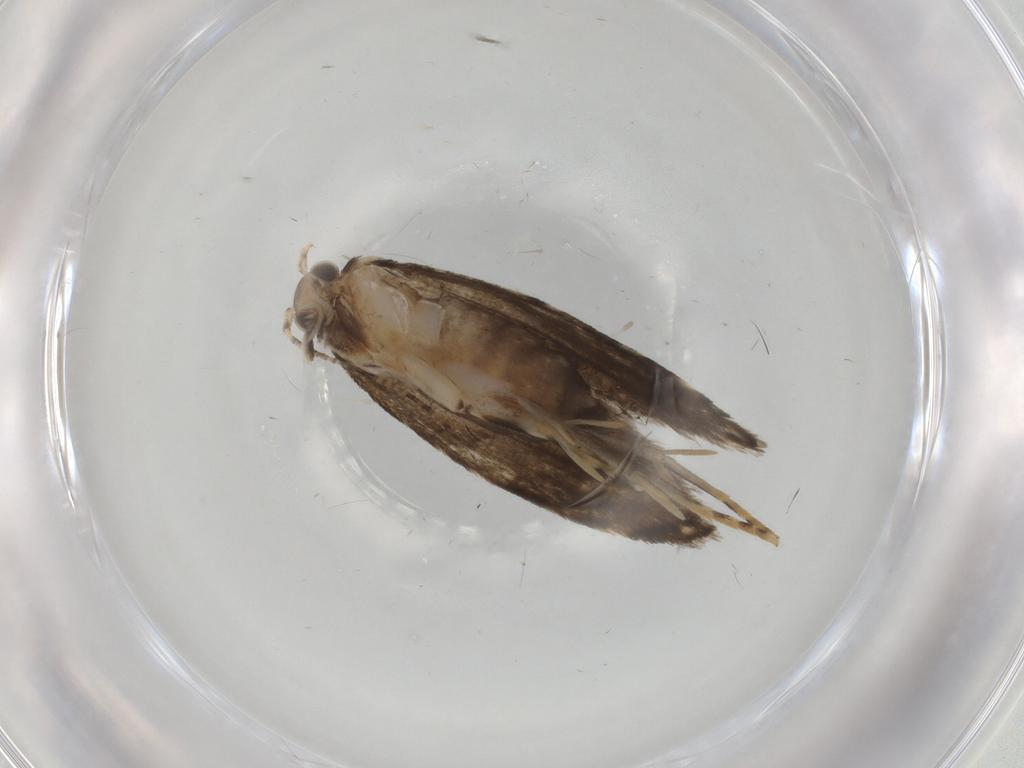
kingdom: Animalia
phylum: Arthropoda
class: Insecta
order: Lepidoptera
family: Tineidae
